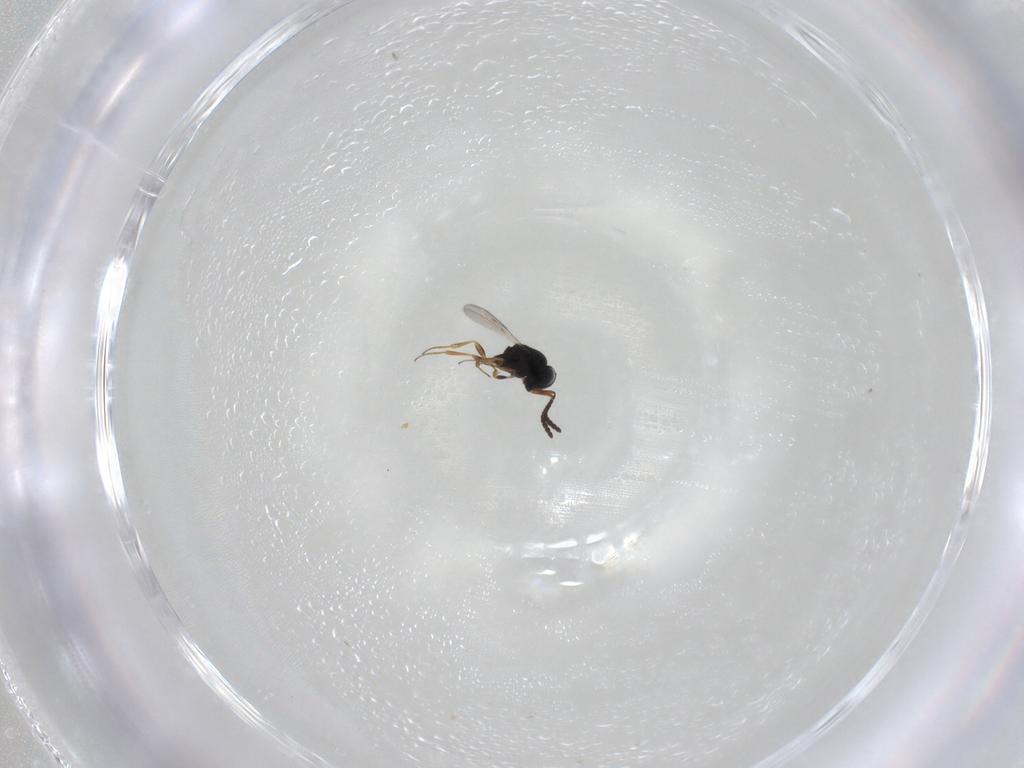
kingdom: Animalia
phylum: Arthropoda
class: Insecta
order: Hymenoptera
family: Scelionidae
